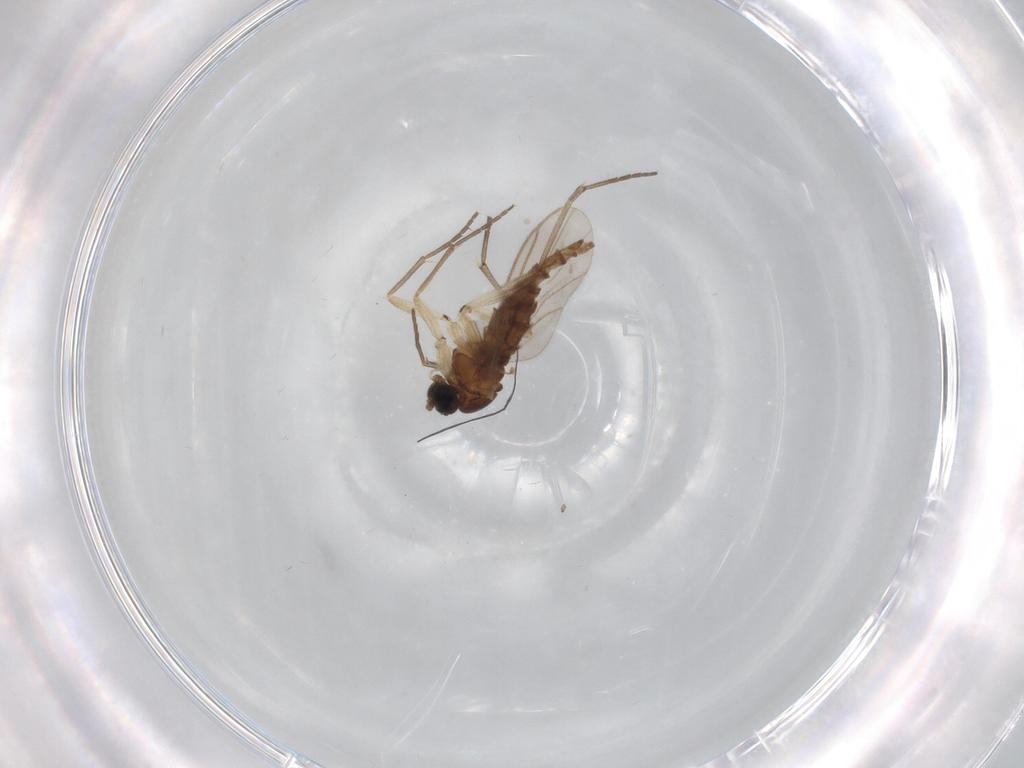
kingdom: Animalia
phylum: Arthropoda
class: Insecta
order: Diptera
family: Sciaridae
